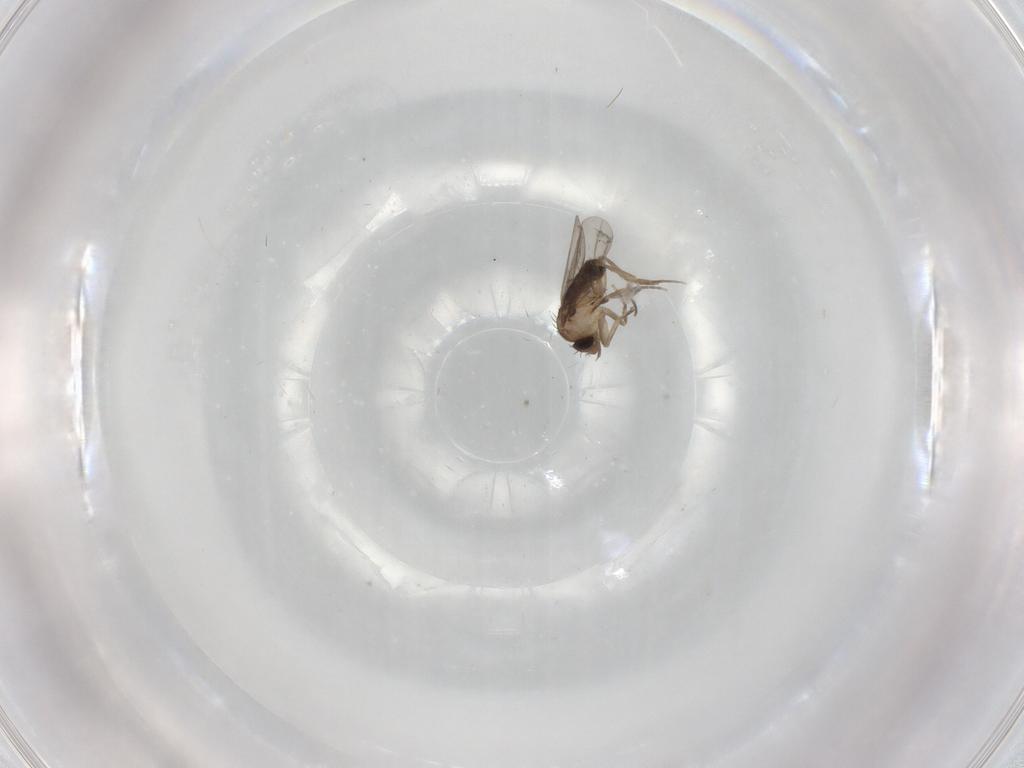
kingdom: Animalia
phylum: Arthropoda
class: Insecta
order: Diptera
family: Phoridae
